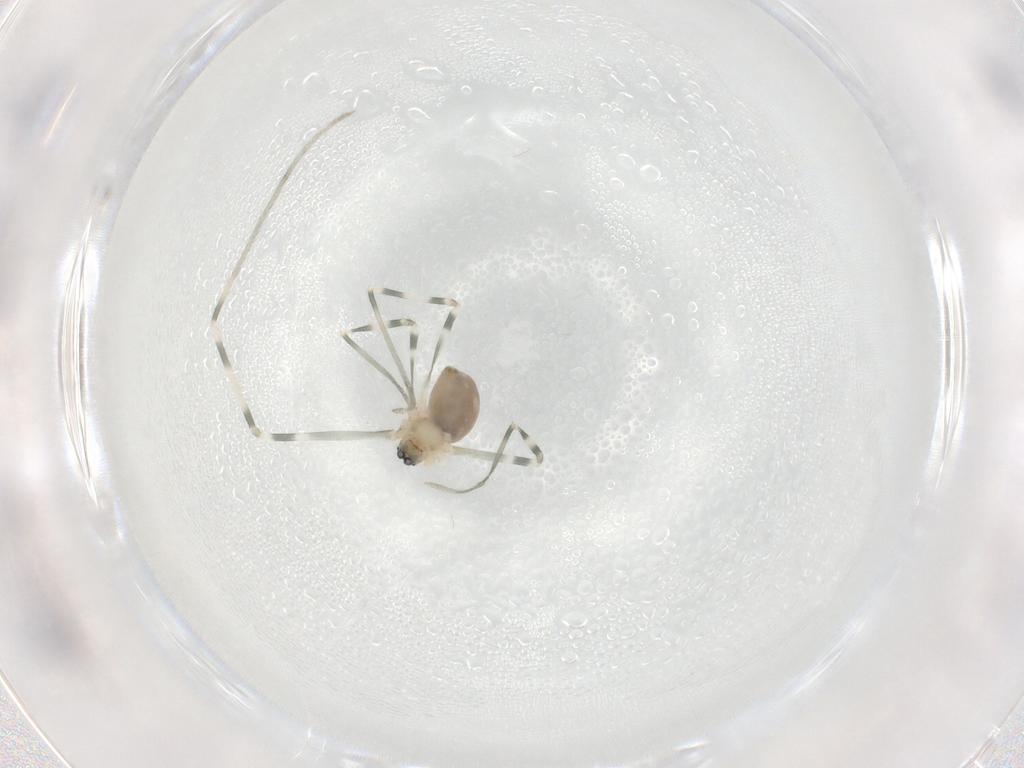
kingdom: Animalia
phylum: Arthropoda
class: Arachnida
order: Araneae
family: Pholcidae
